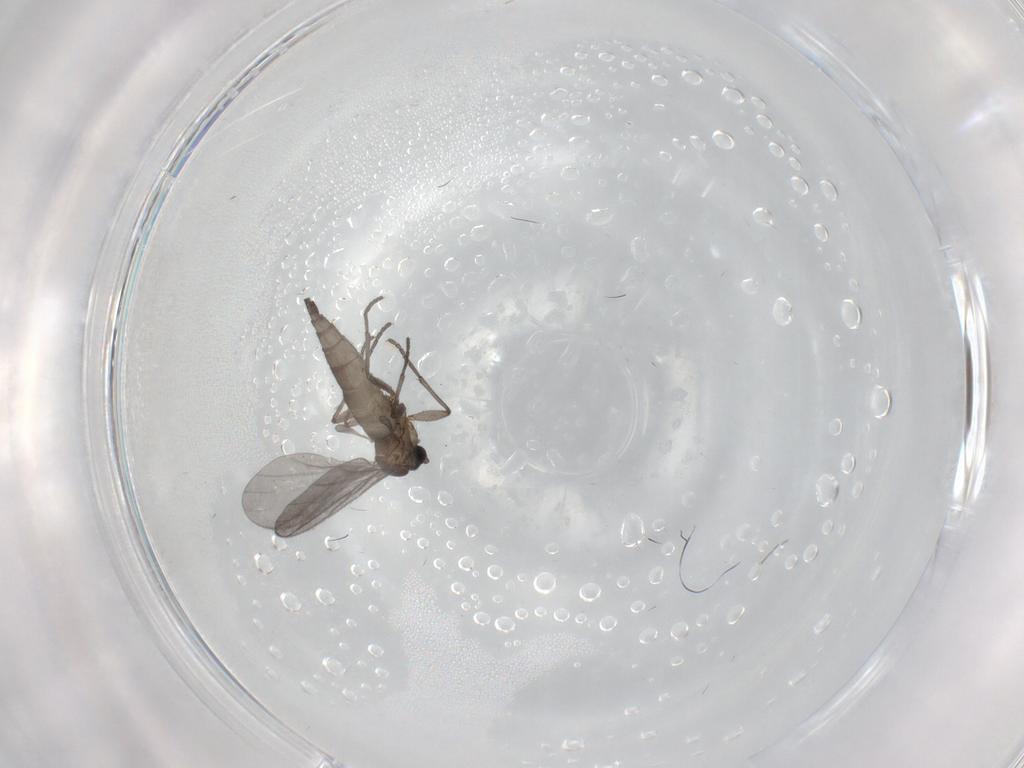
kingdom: Animalia
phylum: Arthropoda
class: Insecta
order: Diptera
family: Sciaridae
